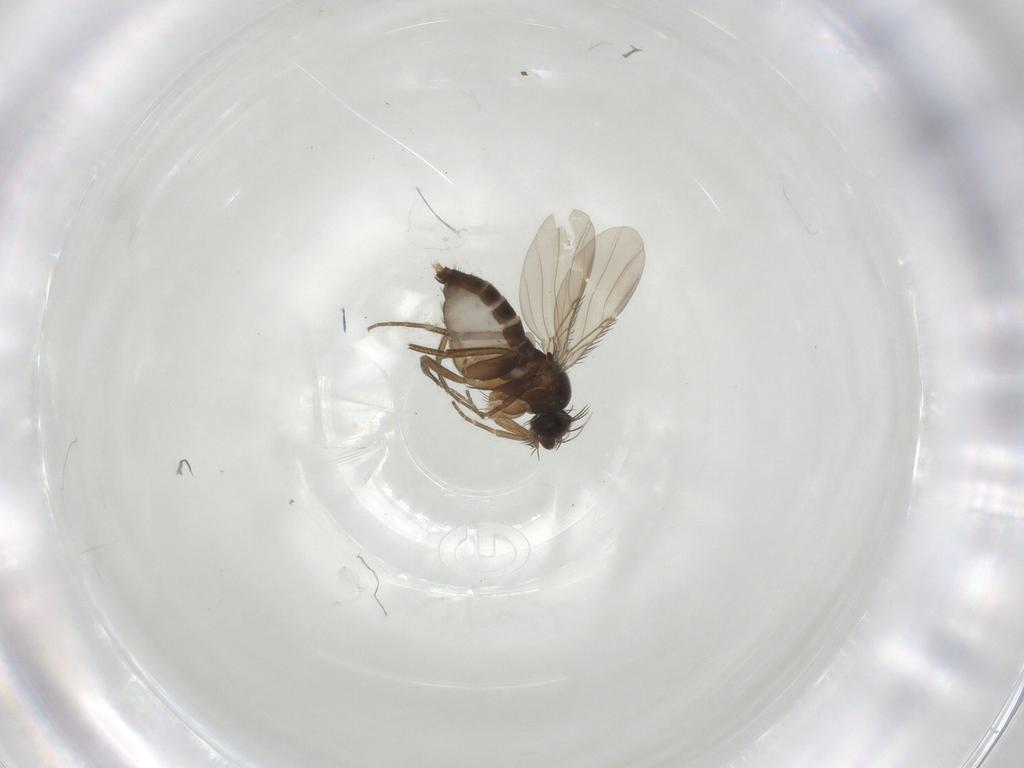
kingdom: Animalia
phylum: Arthropoda
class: Insecta
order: Diptera
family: Phoridae
